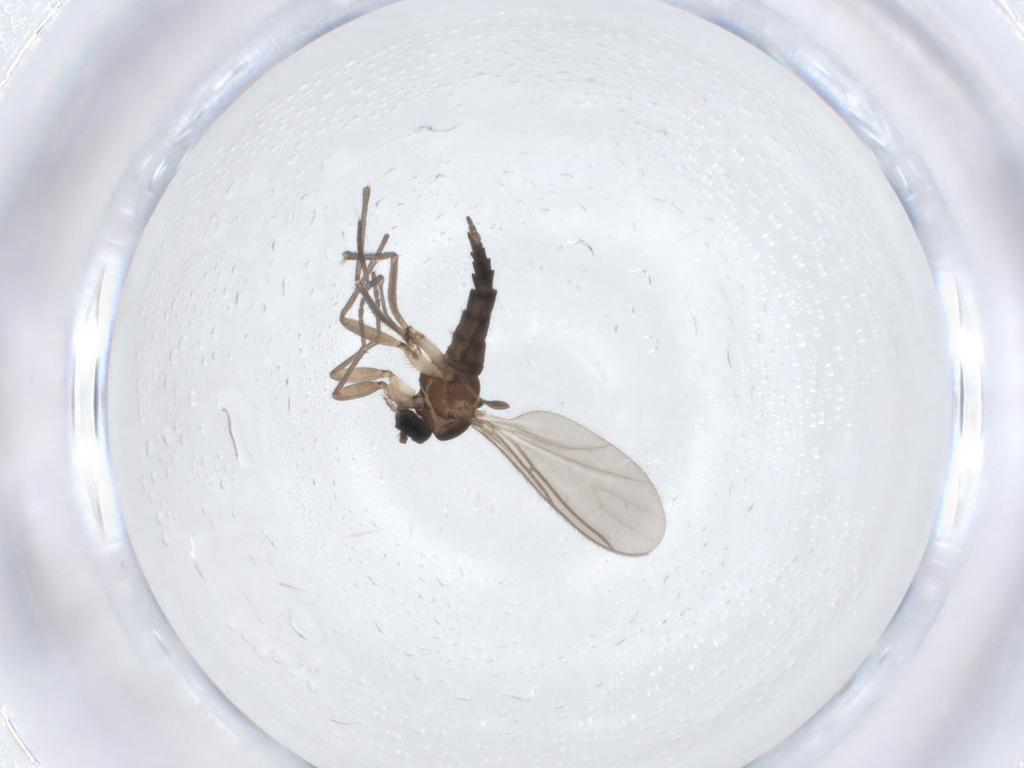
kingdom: Animalia
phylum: Arthropoda
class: Insecta
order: Diptera
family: Sciaridae
